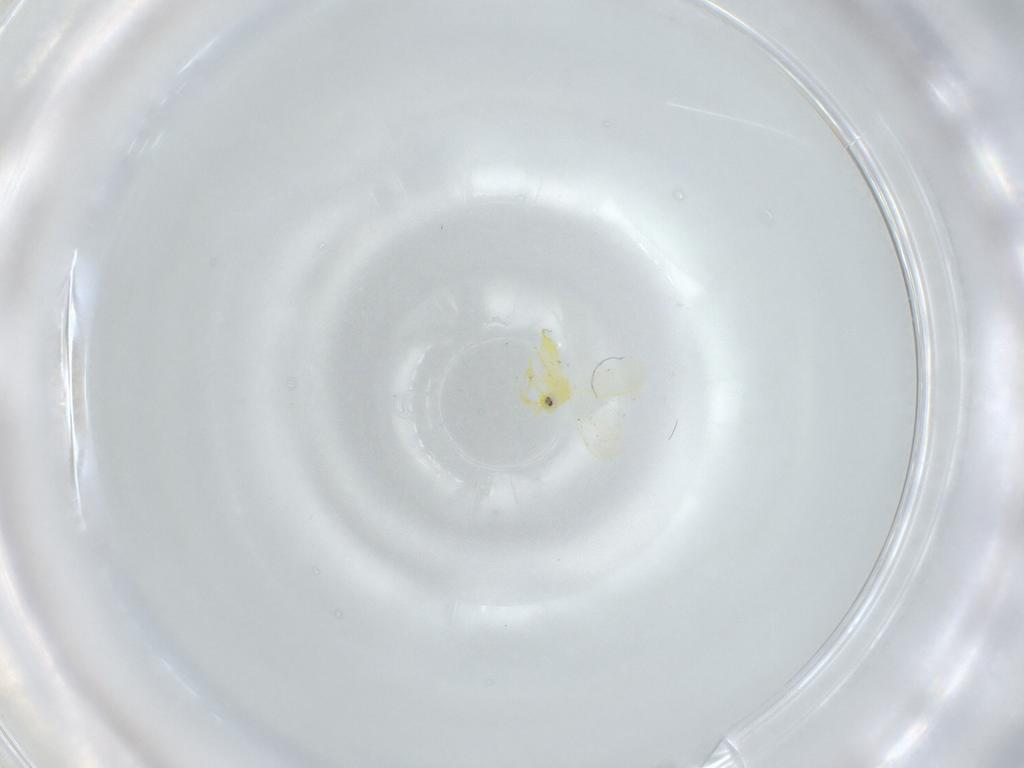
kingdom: Animalia
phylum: Arthropoda
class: Insecta
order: Hemiptera
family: Aleyrodidae
